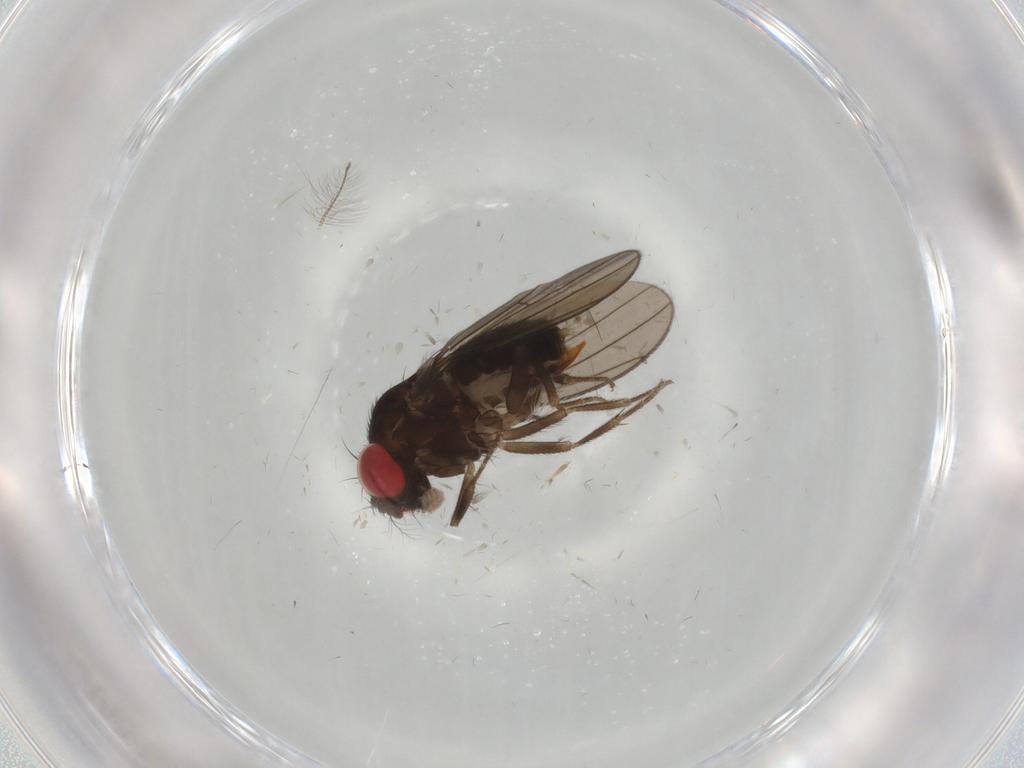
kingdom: Animalia
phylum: Arthropoda
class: Insecta
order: Diptera
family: Drosophilidae
